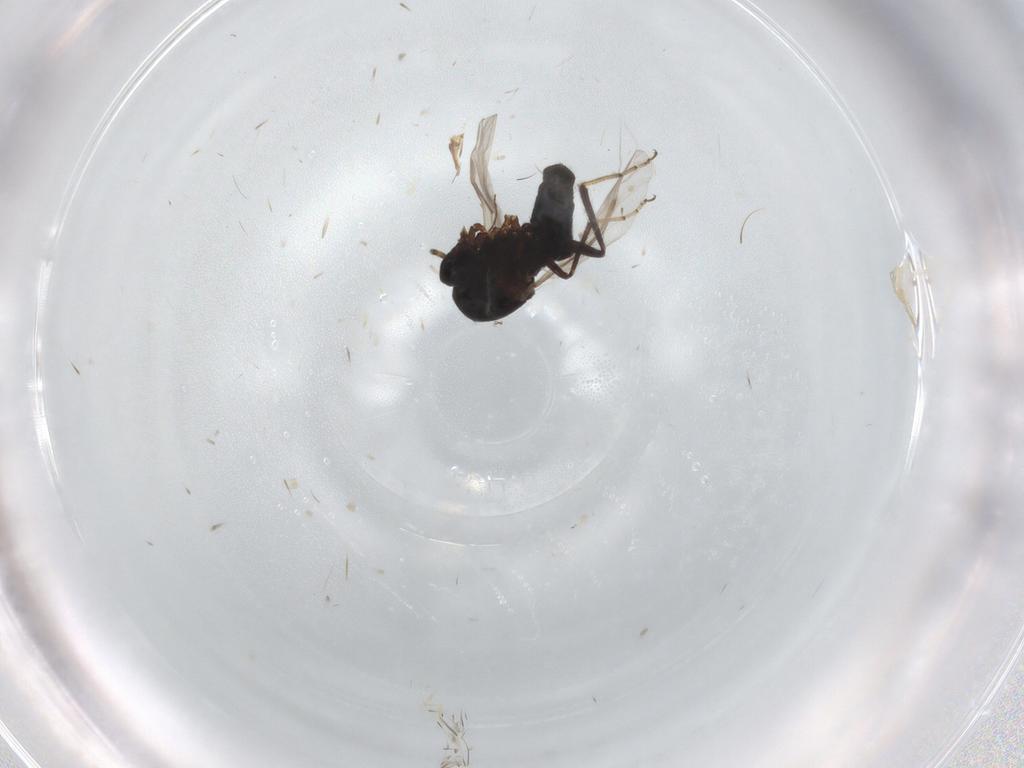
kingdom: Animalia
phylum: Arthropoda
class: Insecta
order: Diptera
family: Ceratopogonidae
